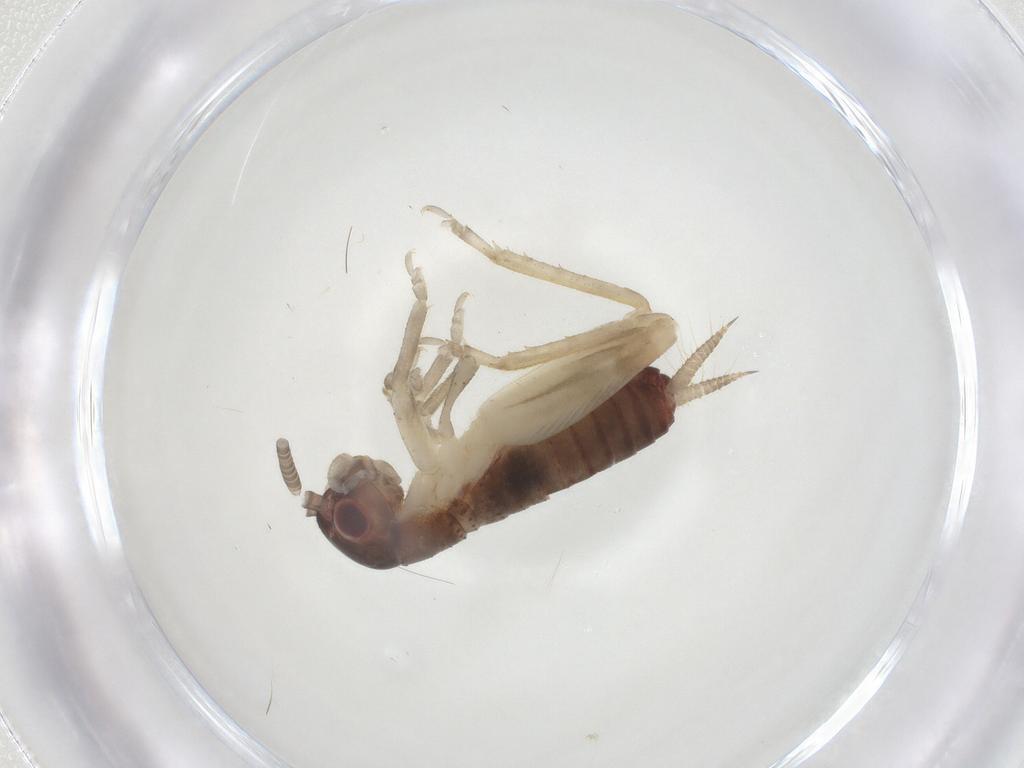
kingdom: Animalia
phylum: Arthropoda
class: Insecta
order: Orthoptera
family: Gryllidae
